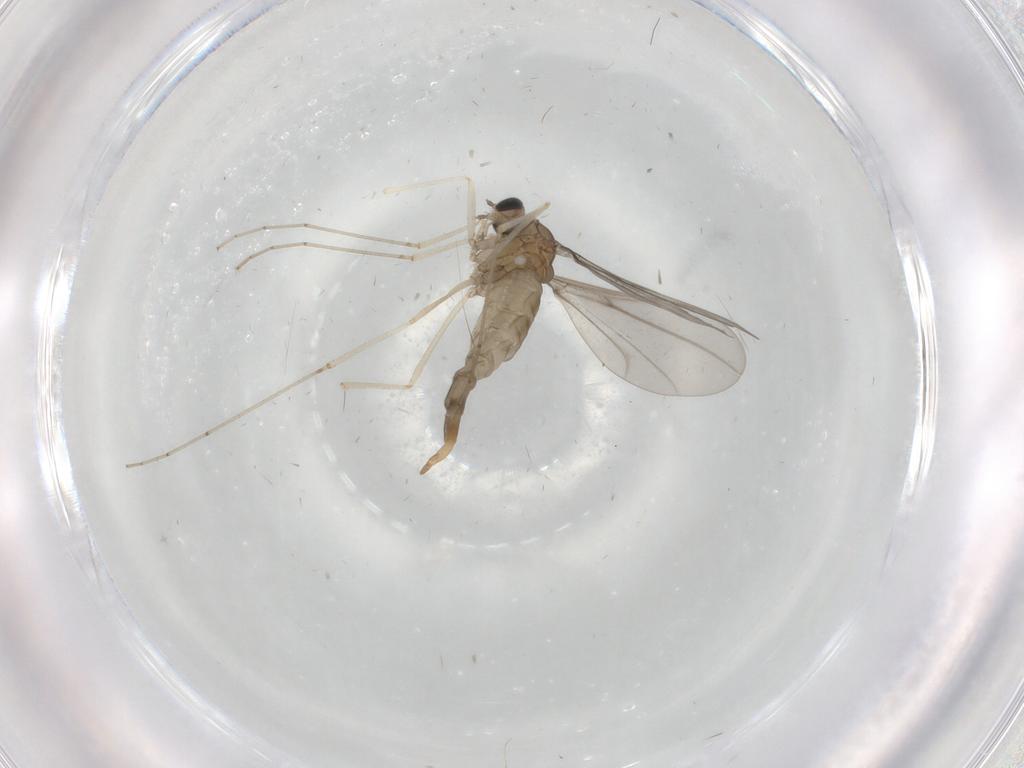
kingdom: Animalia
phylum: Arthropoda
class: Insecta
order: Diptera
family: Cecidomyiidae
